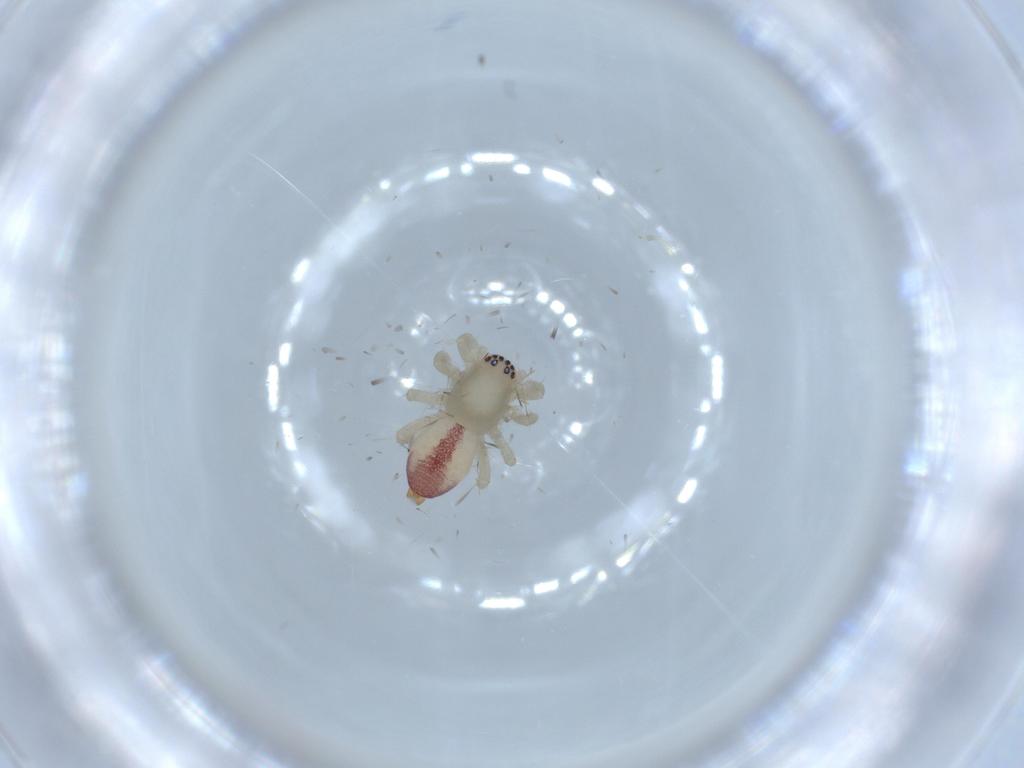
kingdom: Animalia
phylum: Arthropoda
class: Arachnida
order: Araneae
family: Clubionidae
